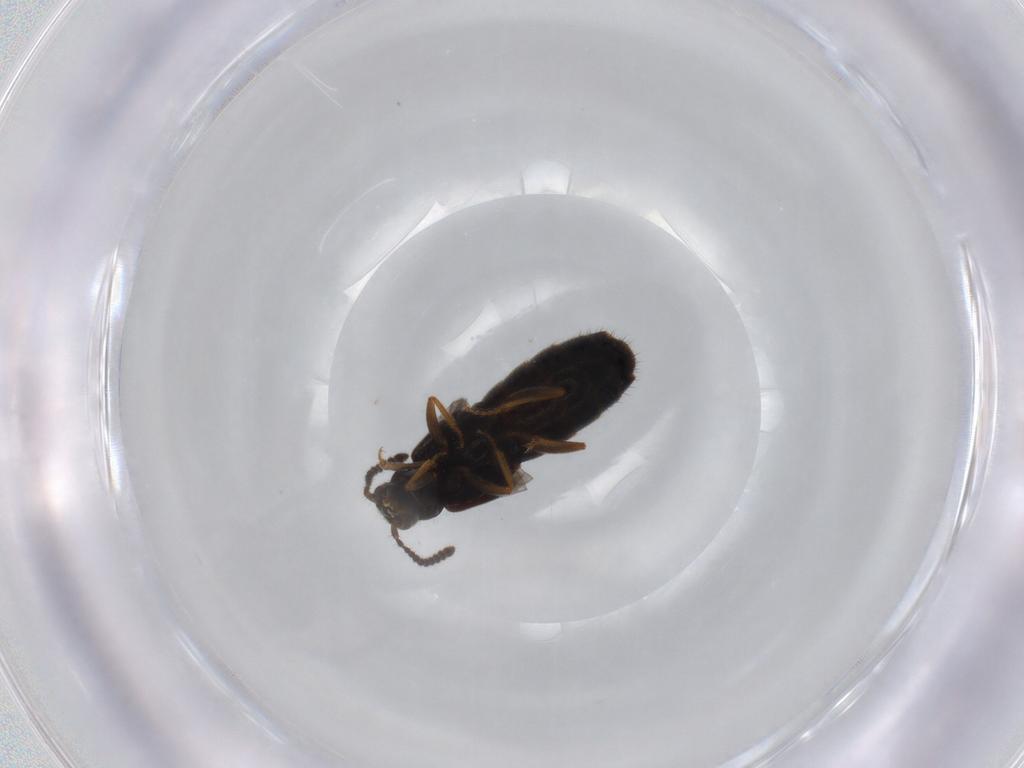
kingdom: Animalia
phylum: Arthropoda
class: Insecta
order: Coleoptera
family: Staphylinidae
